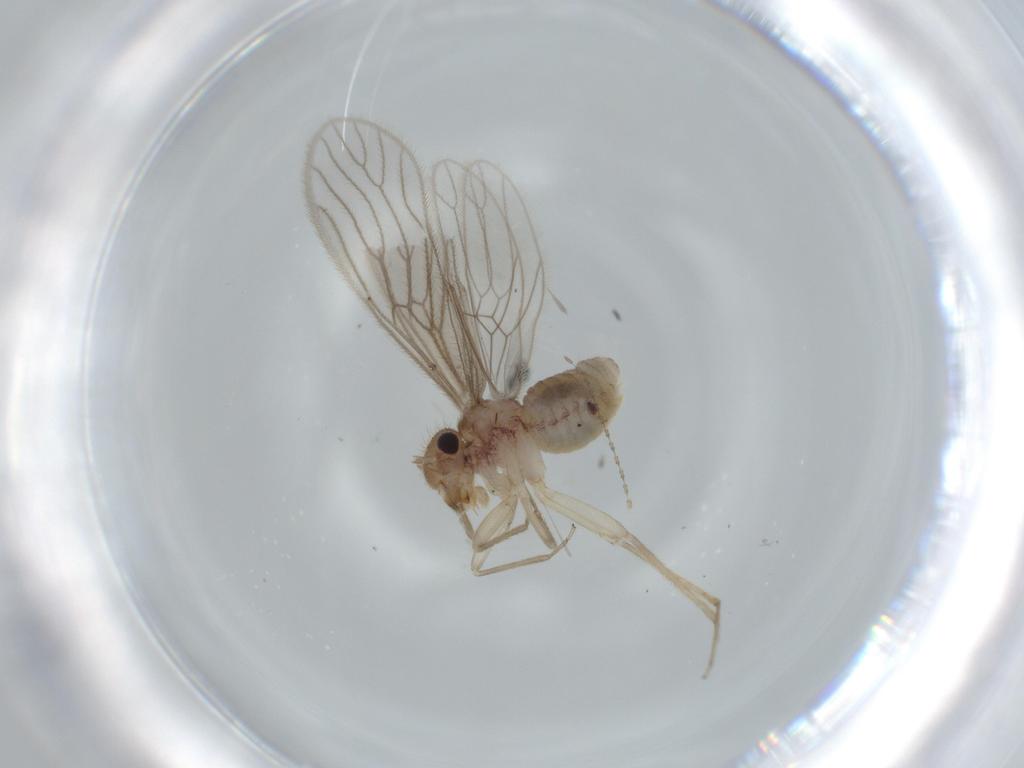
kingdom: Animalia
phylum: Arthropoda
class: Insecta
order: Psocodea
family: Cladiopsocidae
